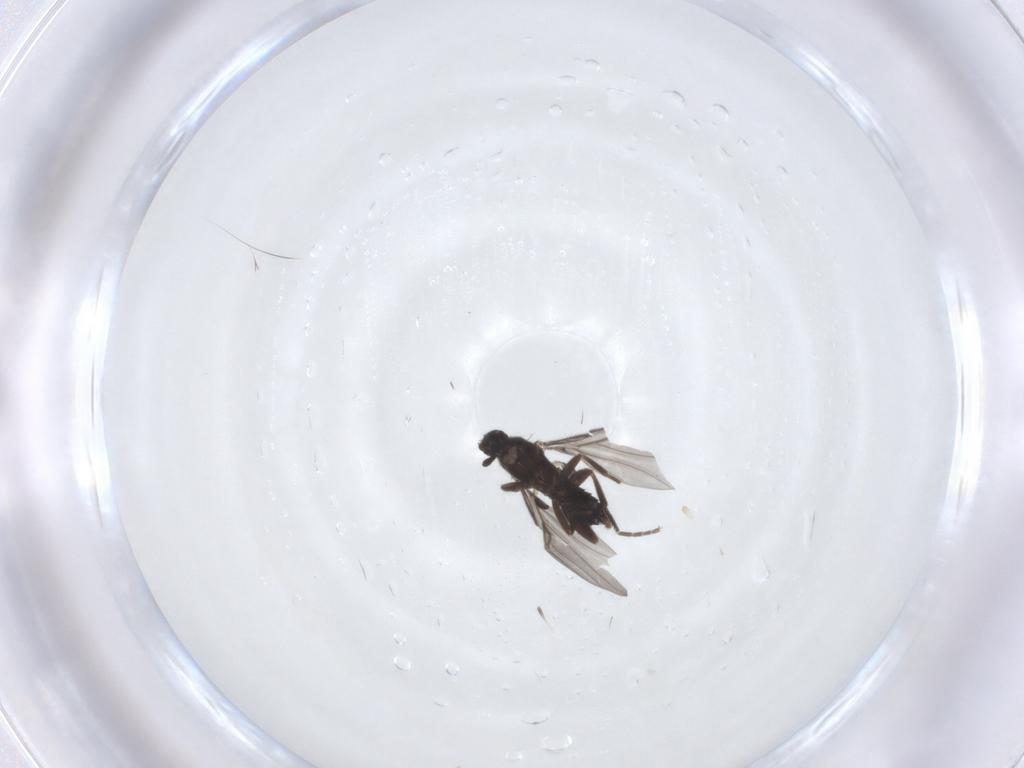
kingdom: Animalia
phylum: Arthropoda
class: Insecta
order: Diptera
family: Phoridae
